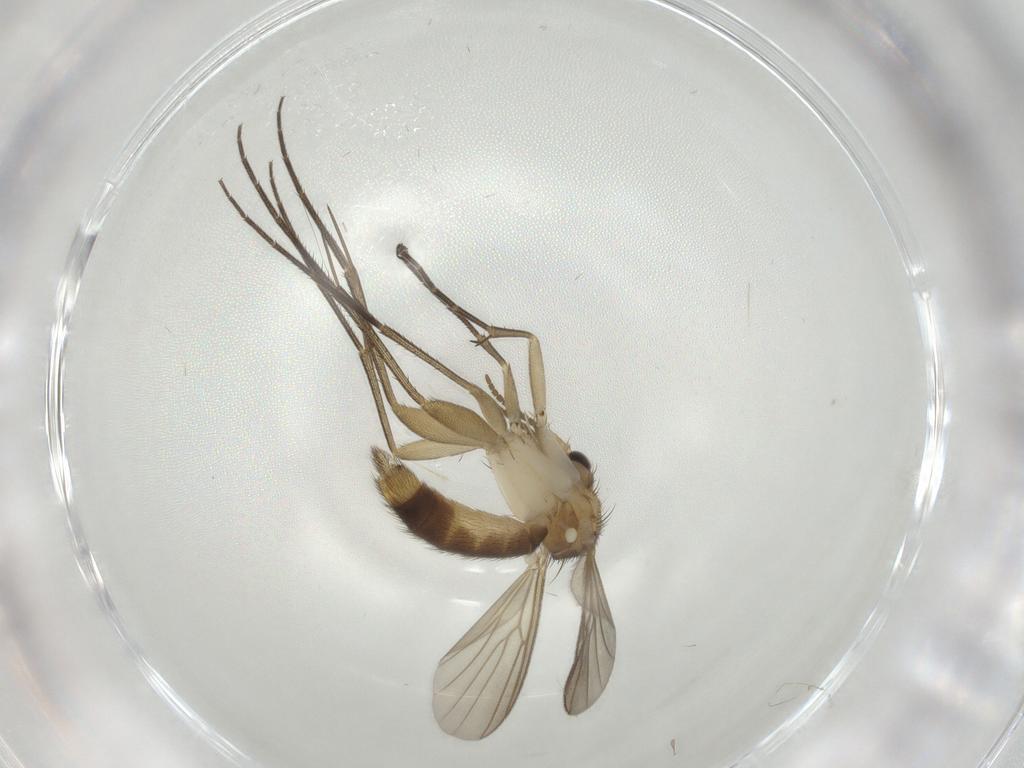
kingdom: Animalia
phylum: Arthropoda
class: Insecta
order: Diptera
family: Mycetophilidae
